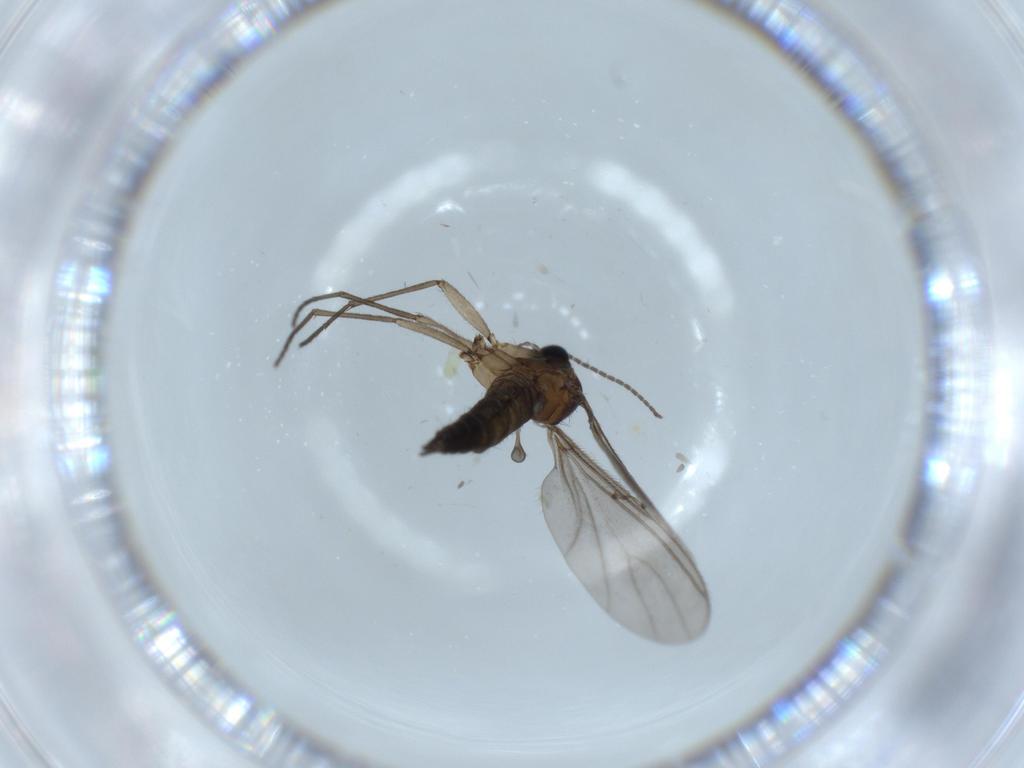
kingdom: Animalia
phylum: Arthropoda
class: Insecta
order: Diptera
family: Sciaridae
